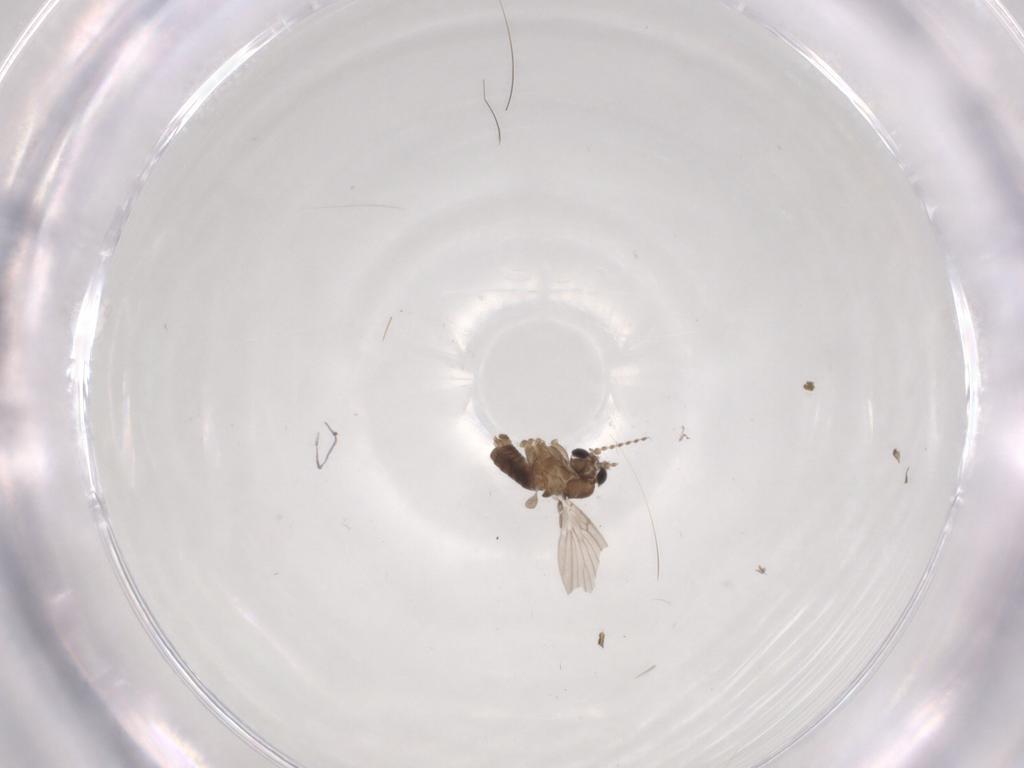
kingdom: Animalia
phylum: Arthropoda
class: Insecta
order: Diptera
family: Phoridae
